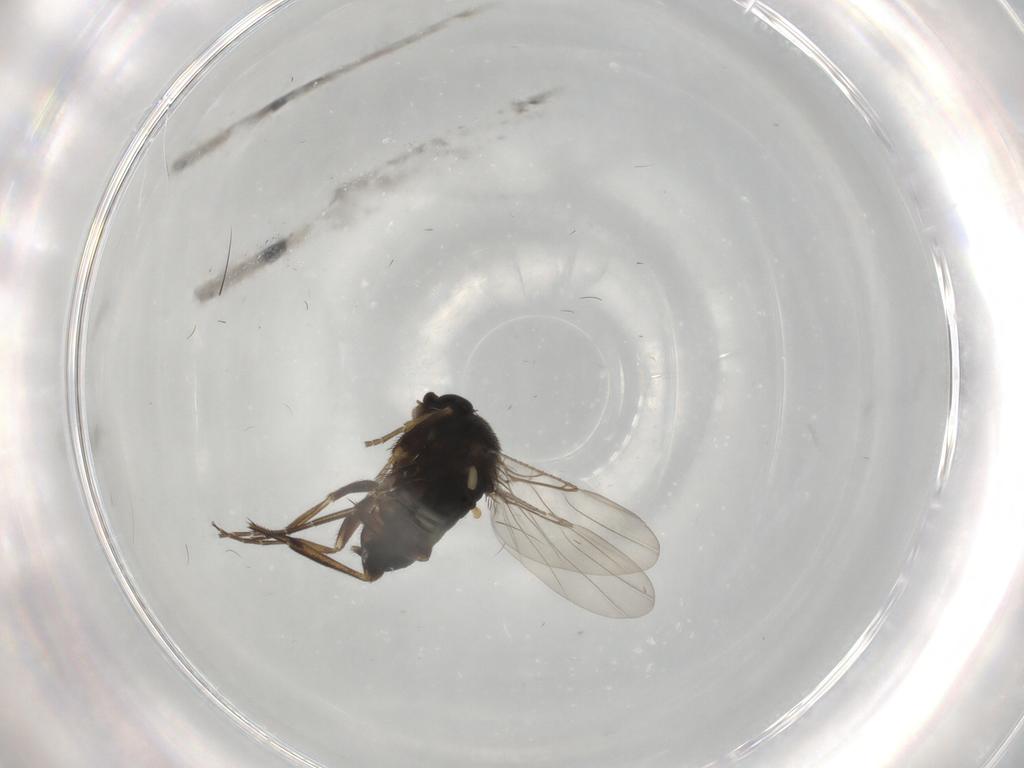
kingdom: Animalia
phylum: Arthropoda
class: Insecta
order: Diptera
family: Phoridae
